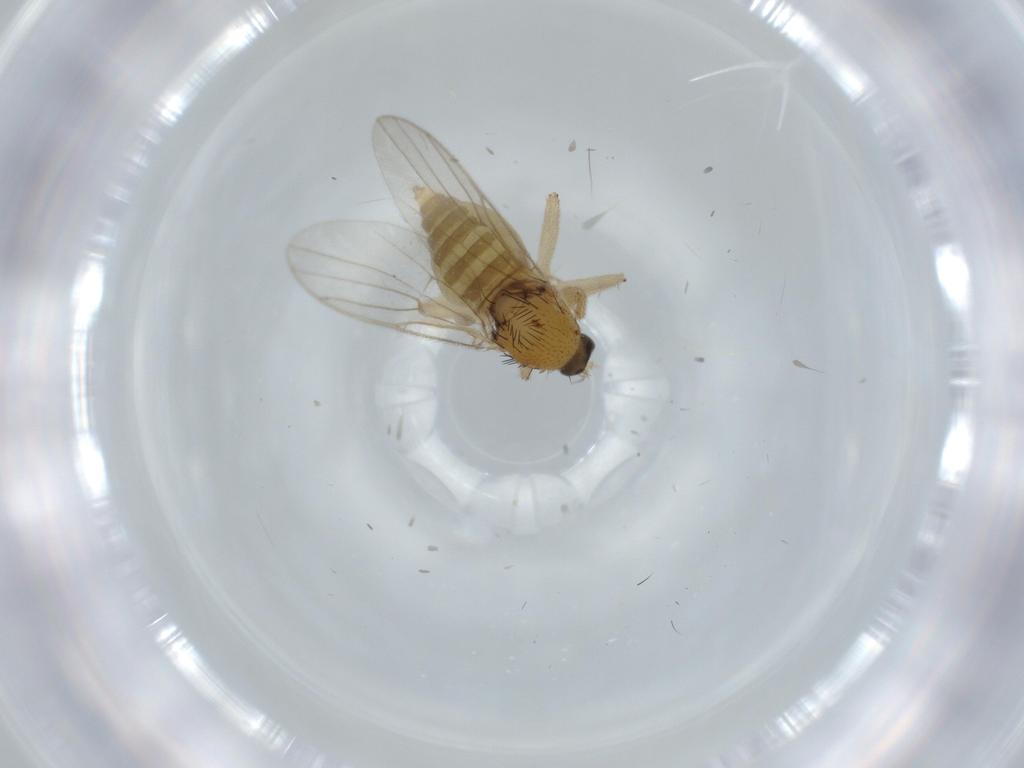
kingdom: Animalia
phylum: Arthropoda
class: Insecta
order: Diptera
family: Hybotidae
